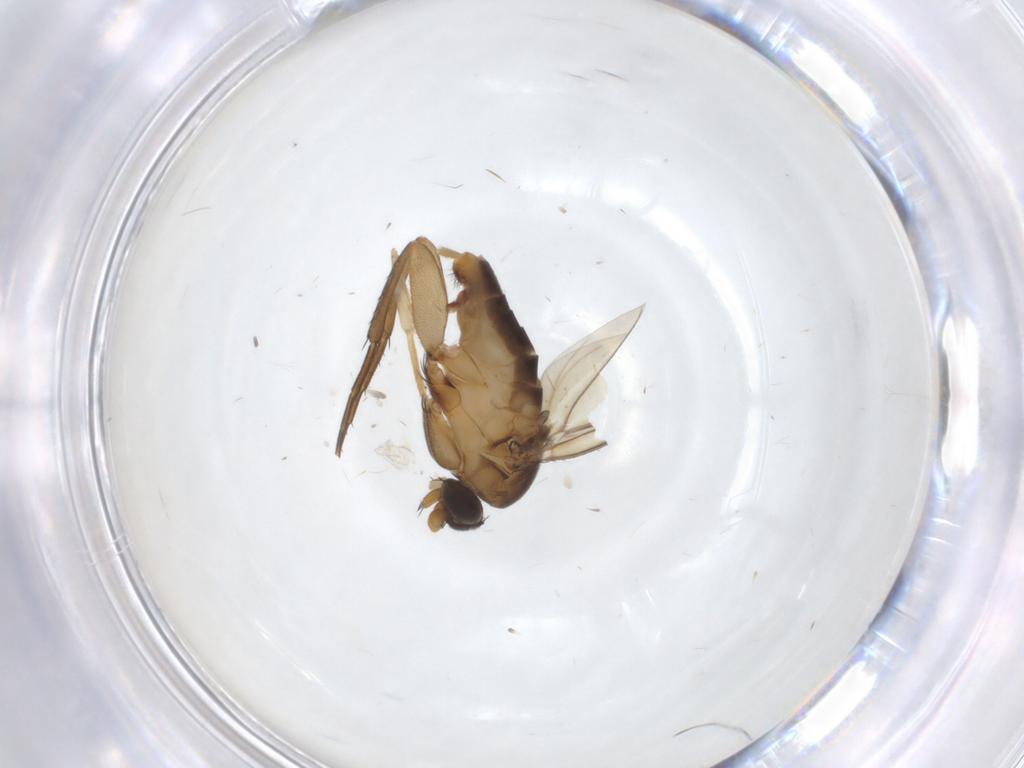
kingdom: Animalia
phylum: Arthropoda
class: Insecta
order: Diptera
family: Phoridae
